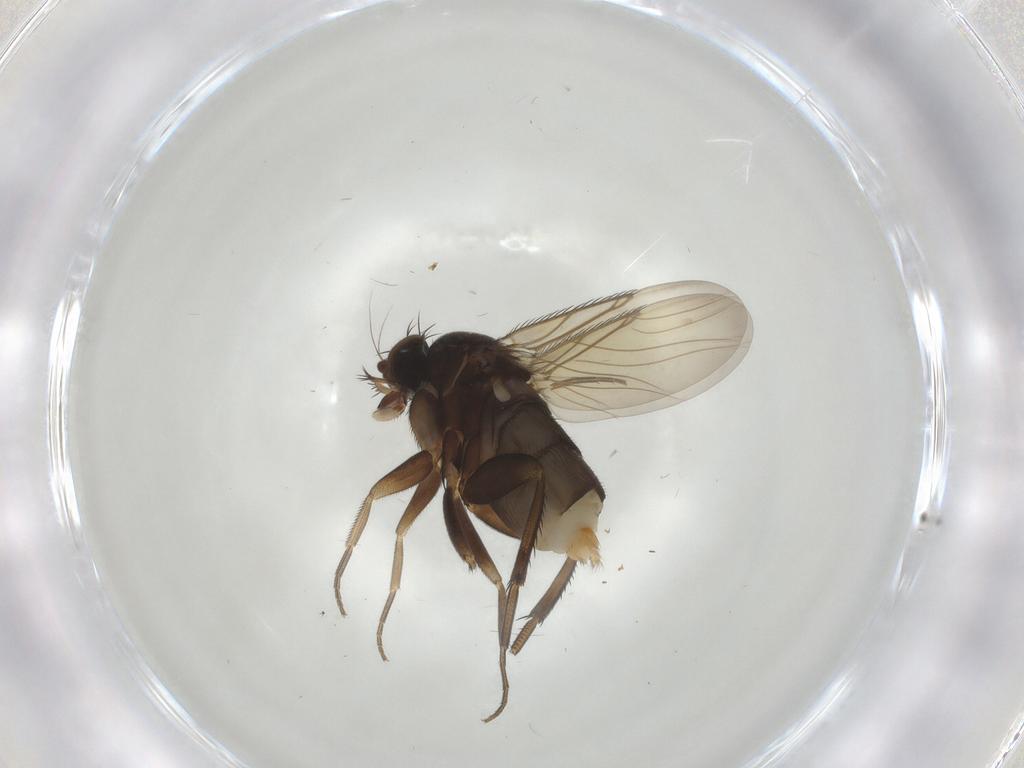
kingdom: Animalia
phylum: Arthropoda
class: Insecta
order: Diptera
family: Phoridae
